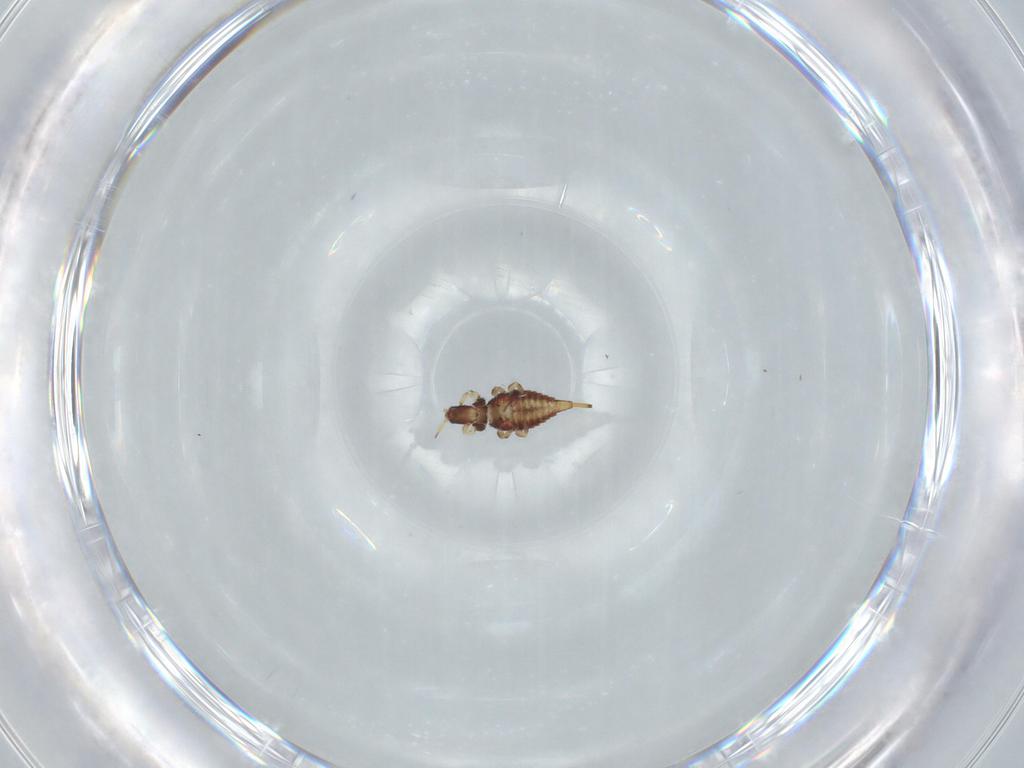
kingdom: Animalia
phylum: Arthropoda
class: Insecta
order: Thysanoptera
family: Phlaeothripidae
